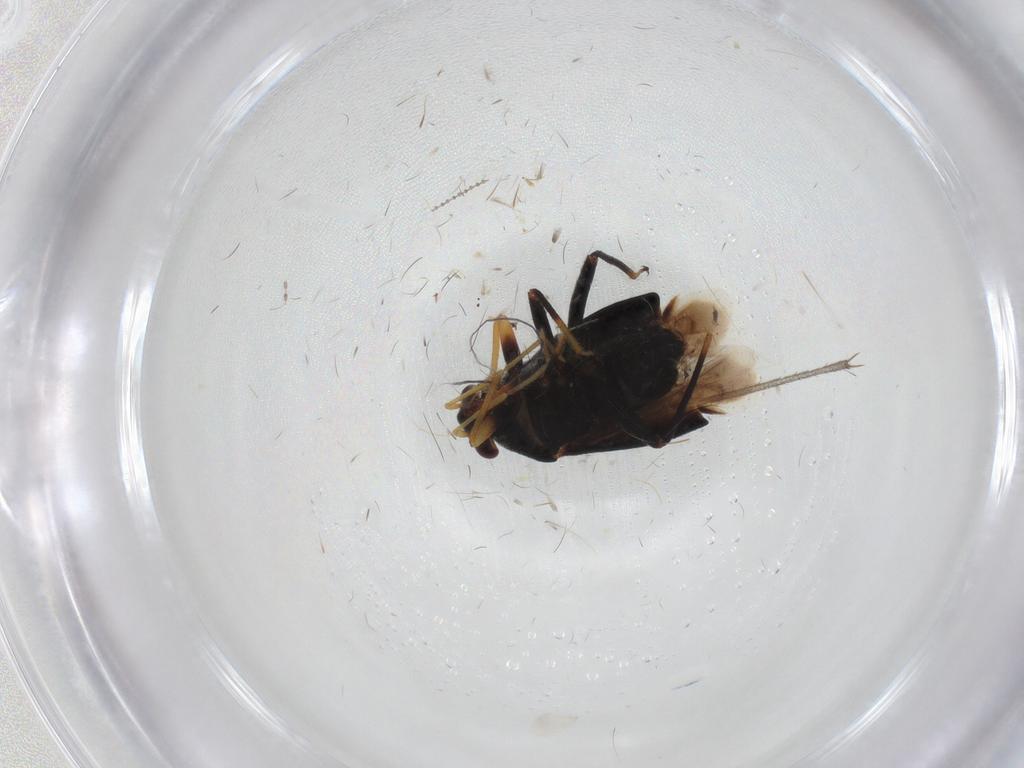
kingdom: Animalia
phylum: Arthropoda
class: Insecta
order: Hemiptera
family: Miridae
